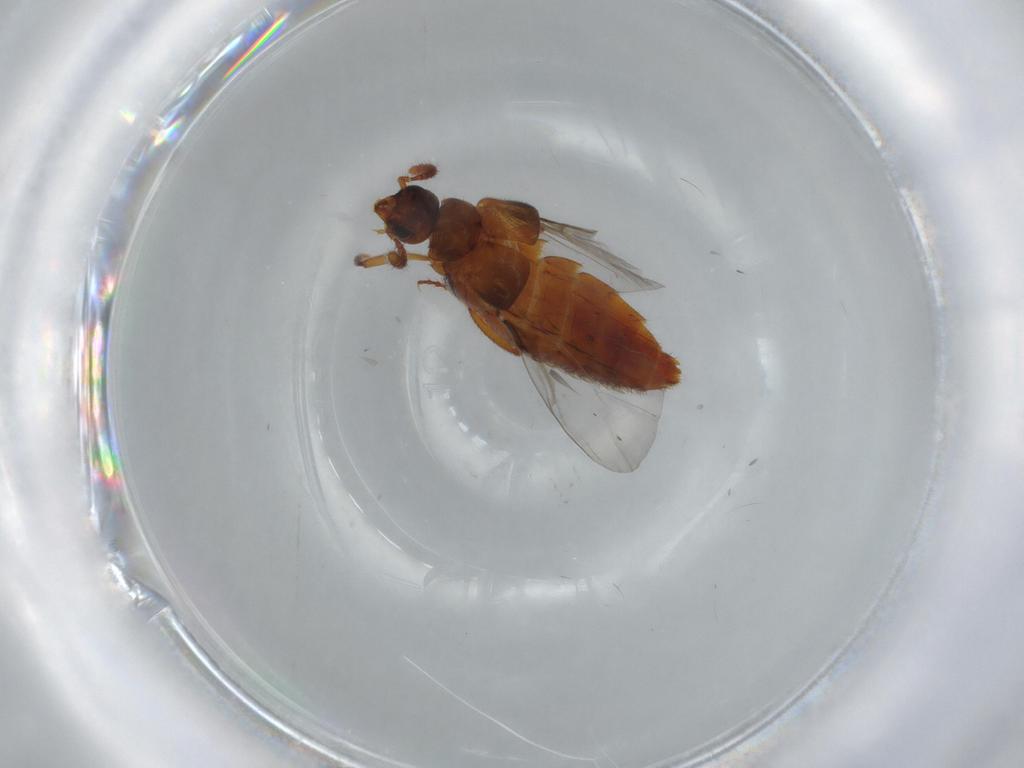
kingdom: Animalia
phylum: Arthropoda
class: Insecta
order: Coleoptera
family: Staphylinidae
